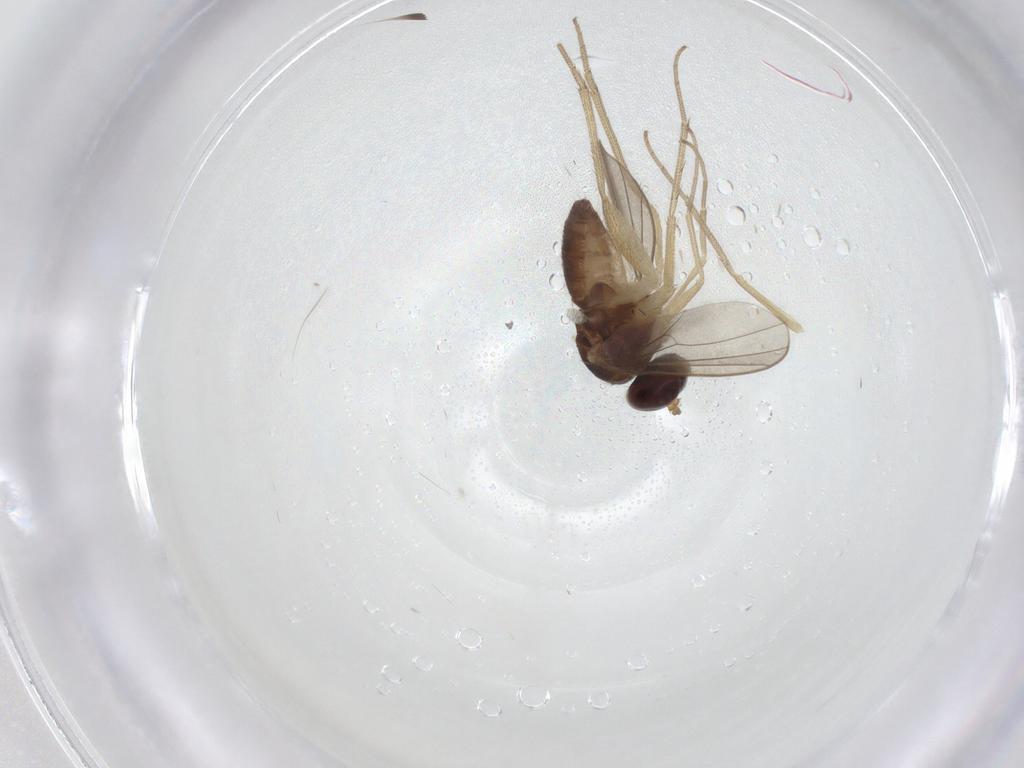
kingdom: Animalia
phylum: Arthropoda
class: Insecta
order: Diptera
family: Dolichopodidae
